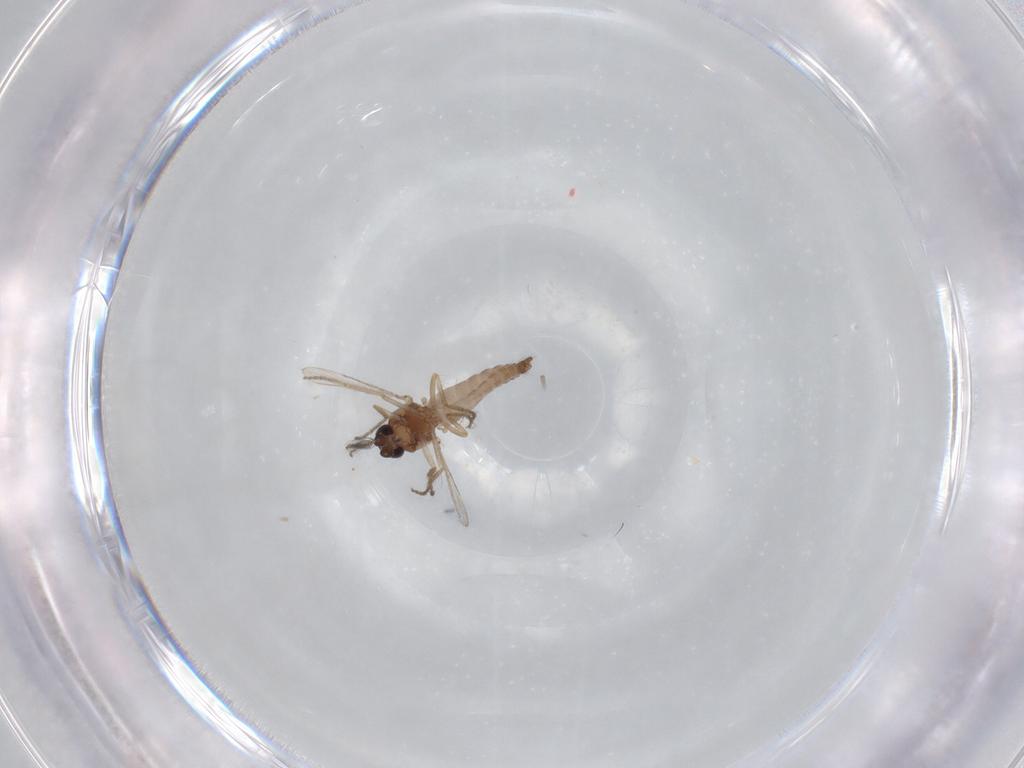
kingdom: Animalia
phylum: Arthropoda
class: Insecta
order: Diptera
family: Ceratopogonidae
